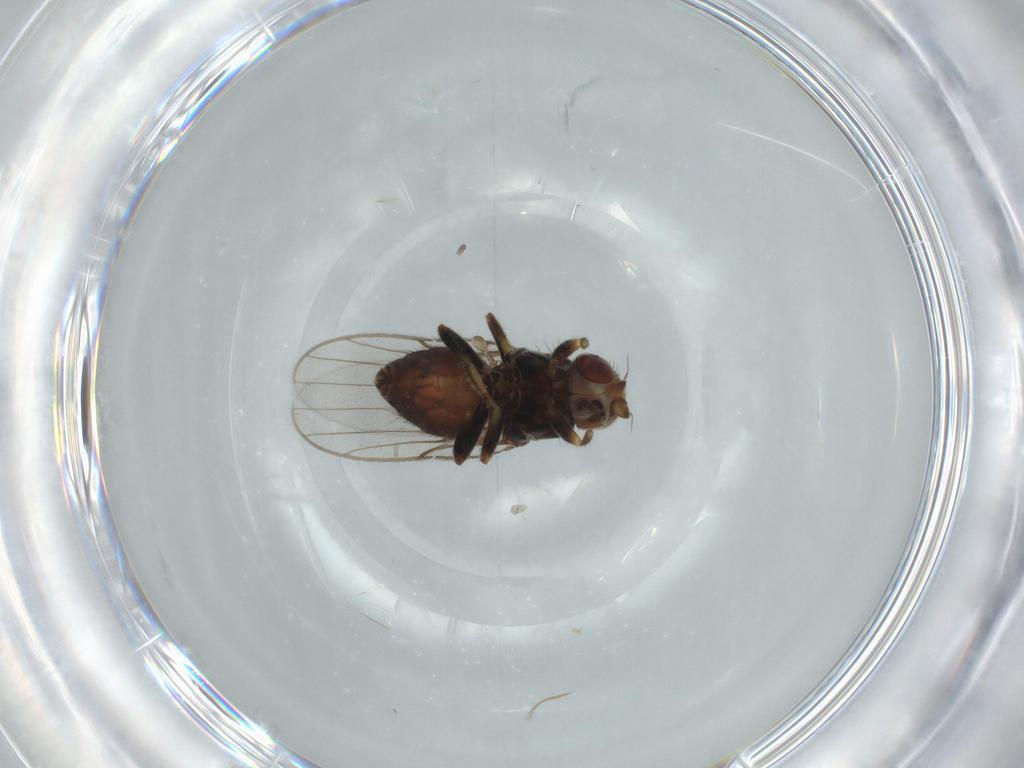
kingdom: Animalia
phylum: Arthropoda
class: Insecta
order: Diptera
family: Chloropidae
